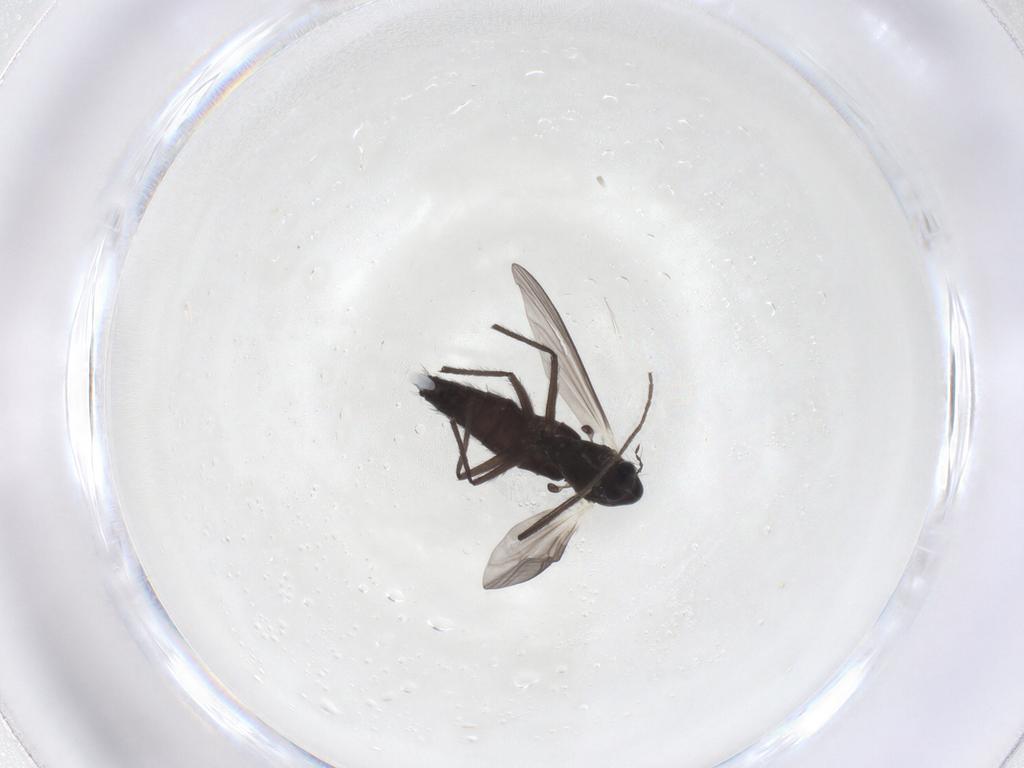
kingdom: Animalia
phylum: Arthropoda
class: Insecta
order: Diptera
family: Chironomidae
